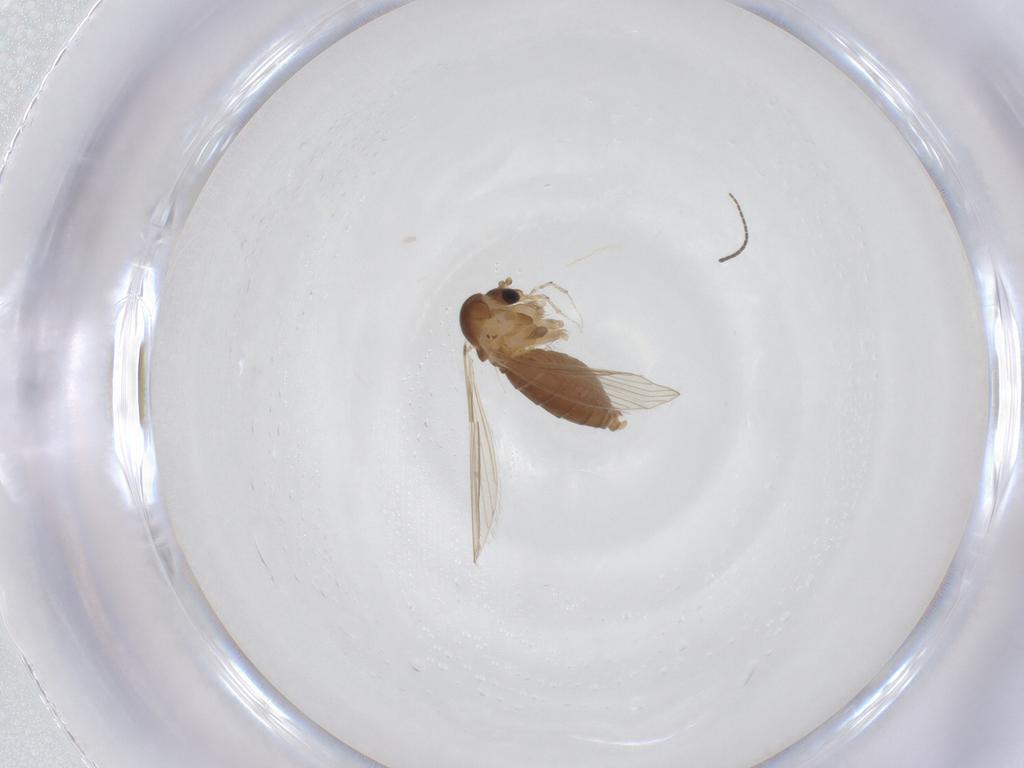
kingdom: Animalia
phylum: Arthropoda
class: Insecta
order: Diptera
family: Psychodidae
